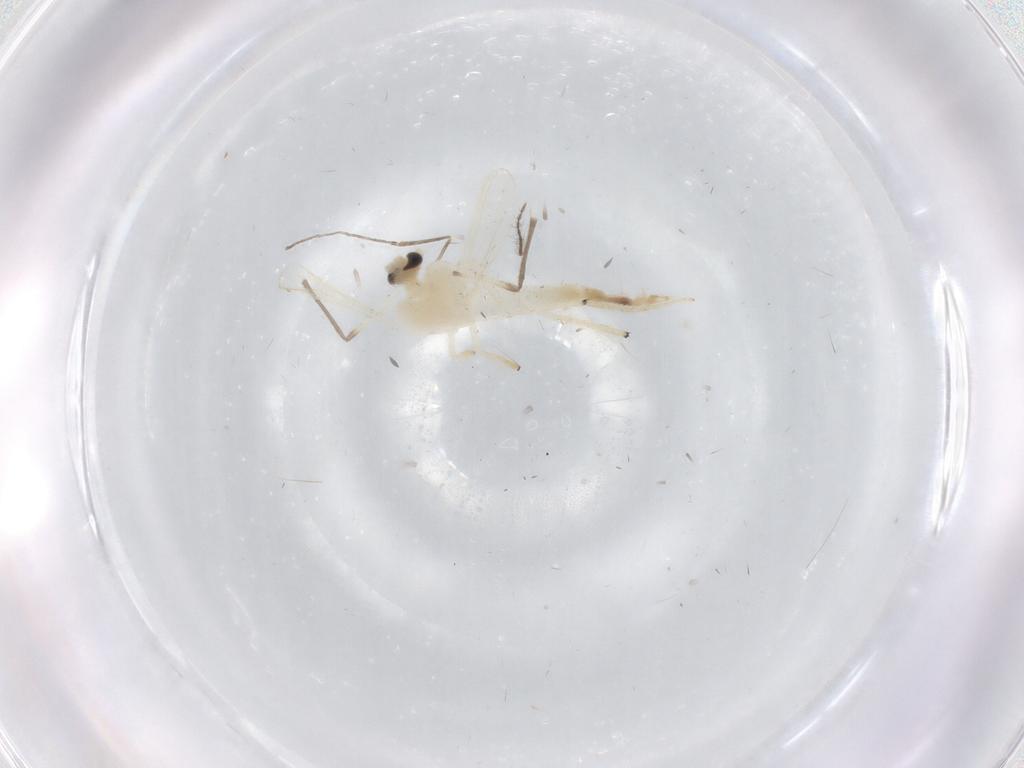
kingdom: Animalia
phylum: Arthropoda
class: Insecta
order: Diptera
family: Chironomidae
